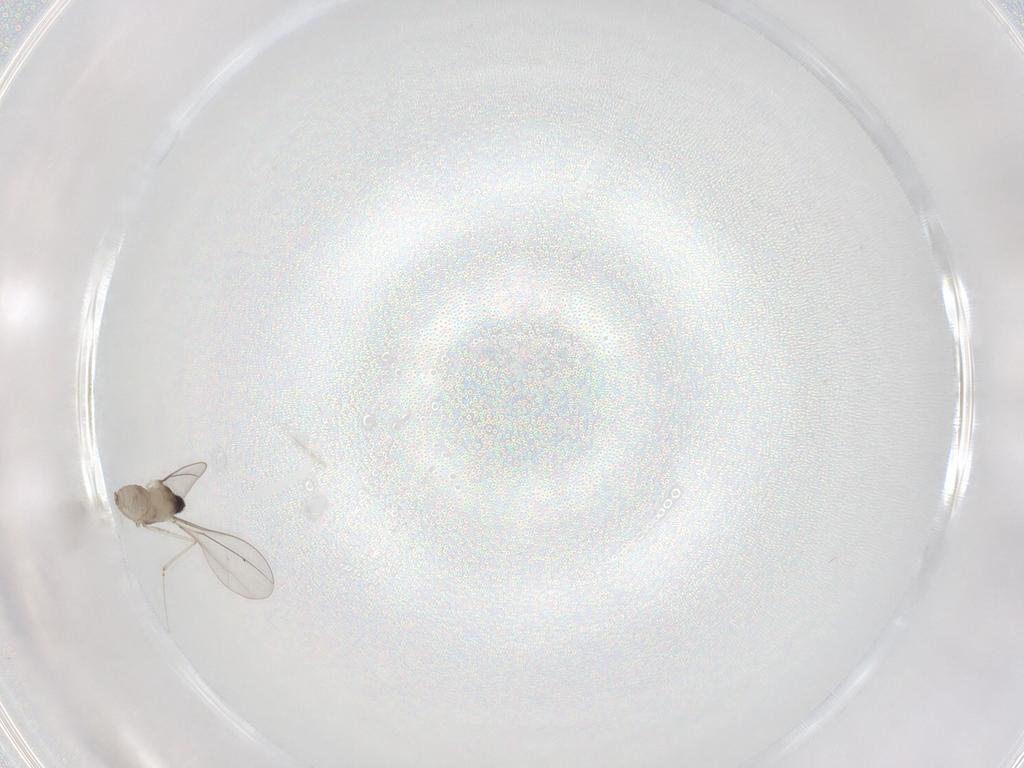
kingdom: Animalia
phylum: Arthropoda
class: Insecta
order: Diptera
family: Cecidomyiidae
